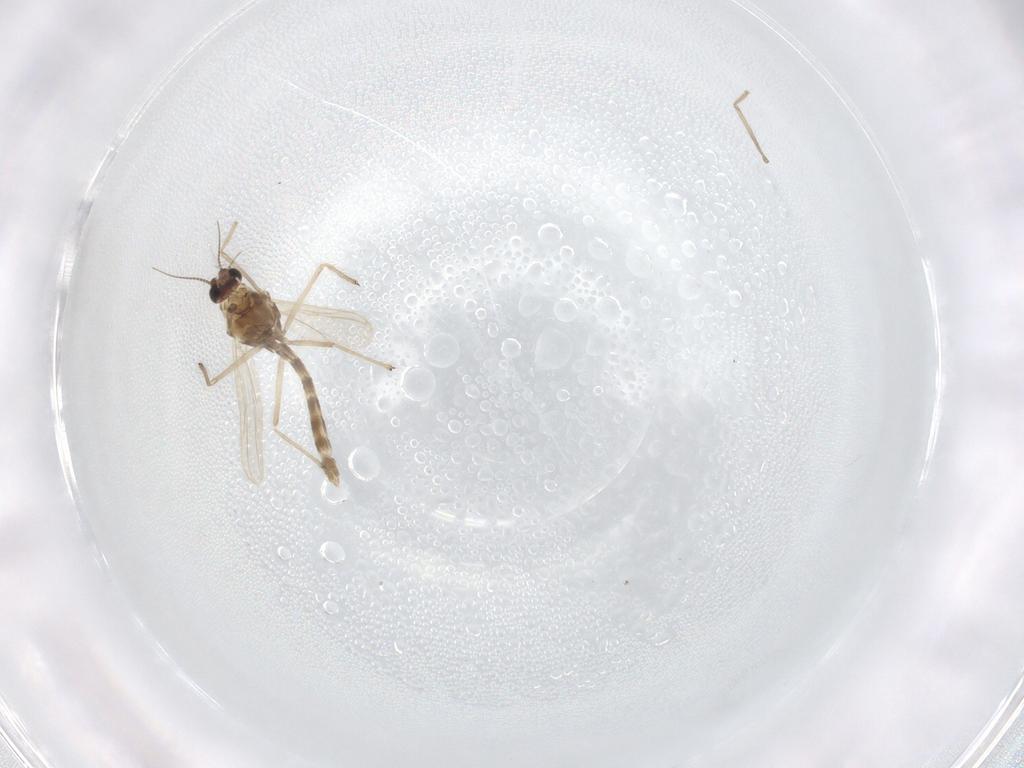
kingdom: Animalia
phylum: Arthropoda
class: Insecta
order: Diptera
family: Chironomidae
